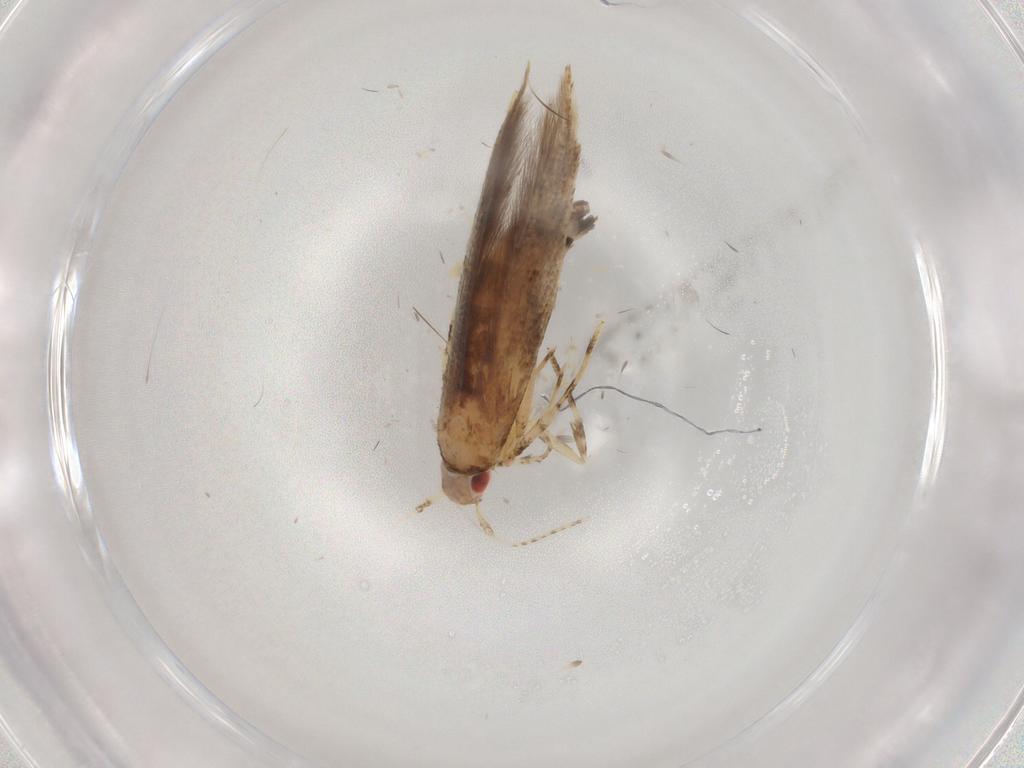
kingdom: Animalia
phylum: Arthropoda
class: Insecta
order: Lepidoptera
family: Cosmopterigidae
